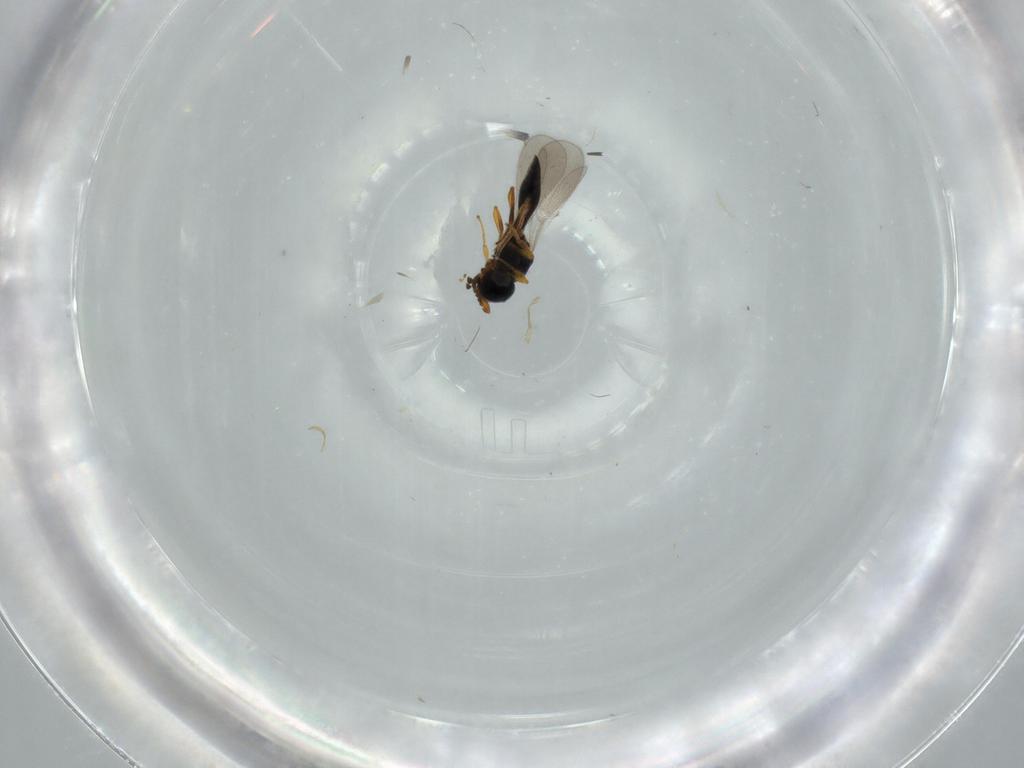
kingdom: Animalia
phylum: Arthropoda
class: Insecta
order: Hymenoptera
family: Platygastridae
